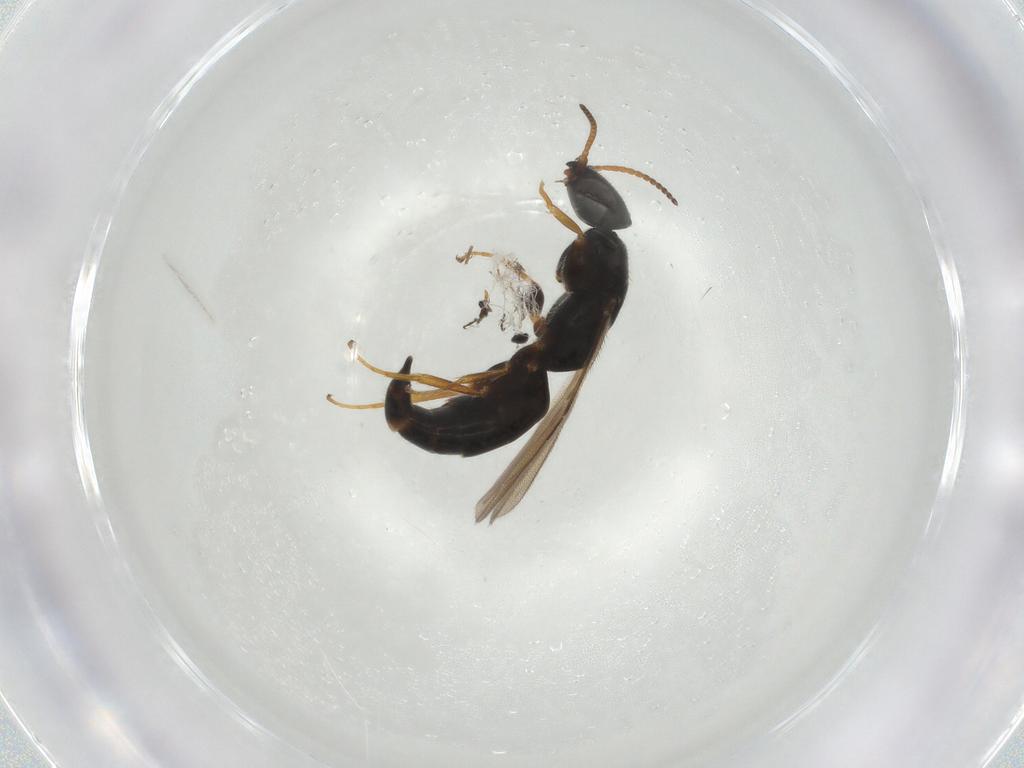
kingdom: Animalia
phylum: Arthropoda
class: Insecta
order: Hymenoptera
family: Bethylidae
